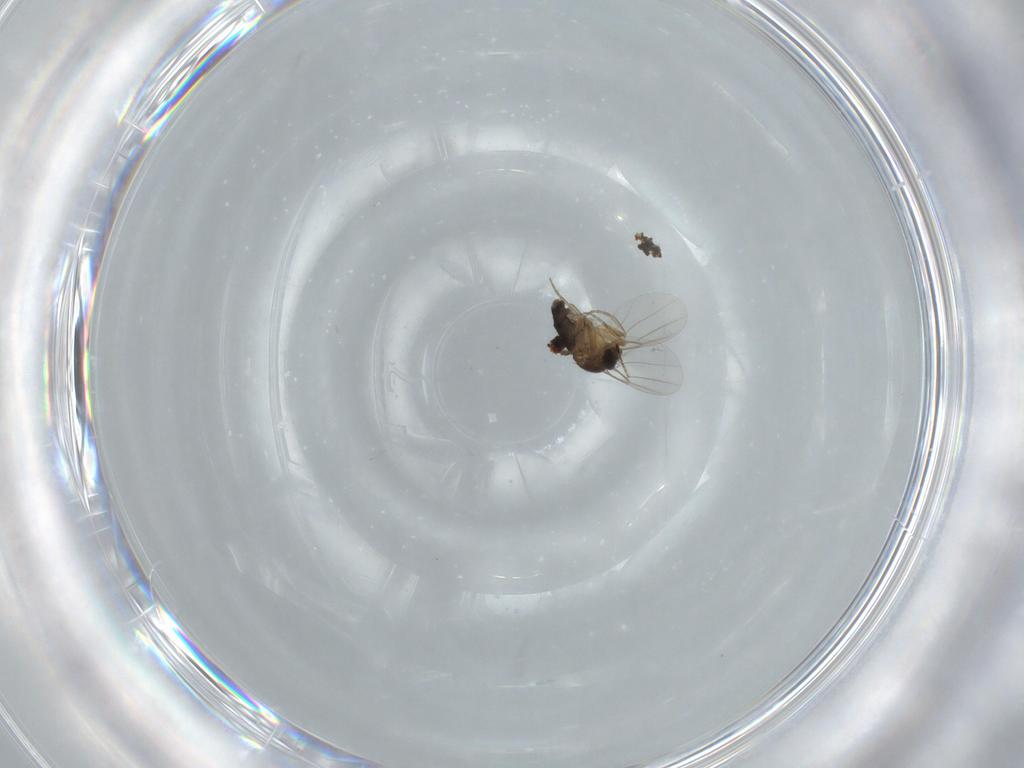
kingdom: Animalia
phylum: Arthropoda
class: Insecta
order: Diptera
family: Phoridae
